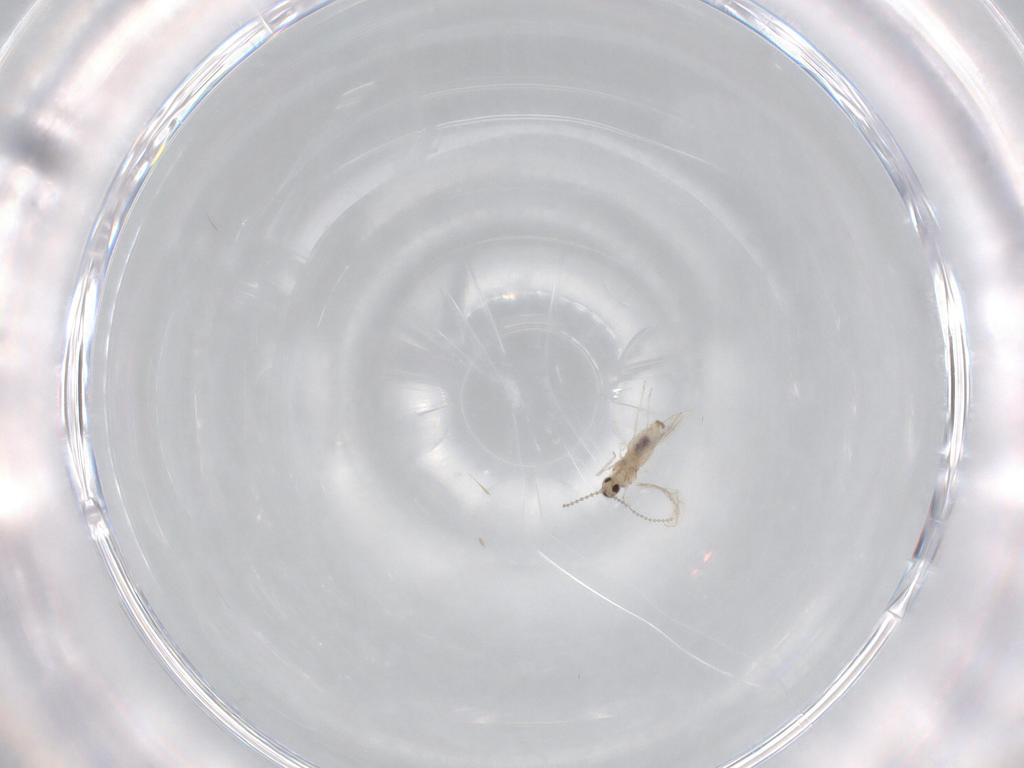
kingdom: Animalia
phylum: Arthropoda
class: Insecta
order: Diptera
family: Cecidomyiidae
